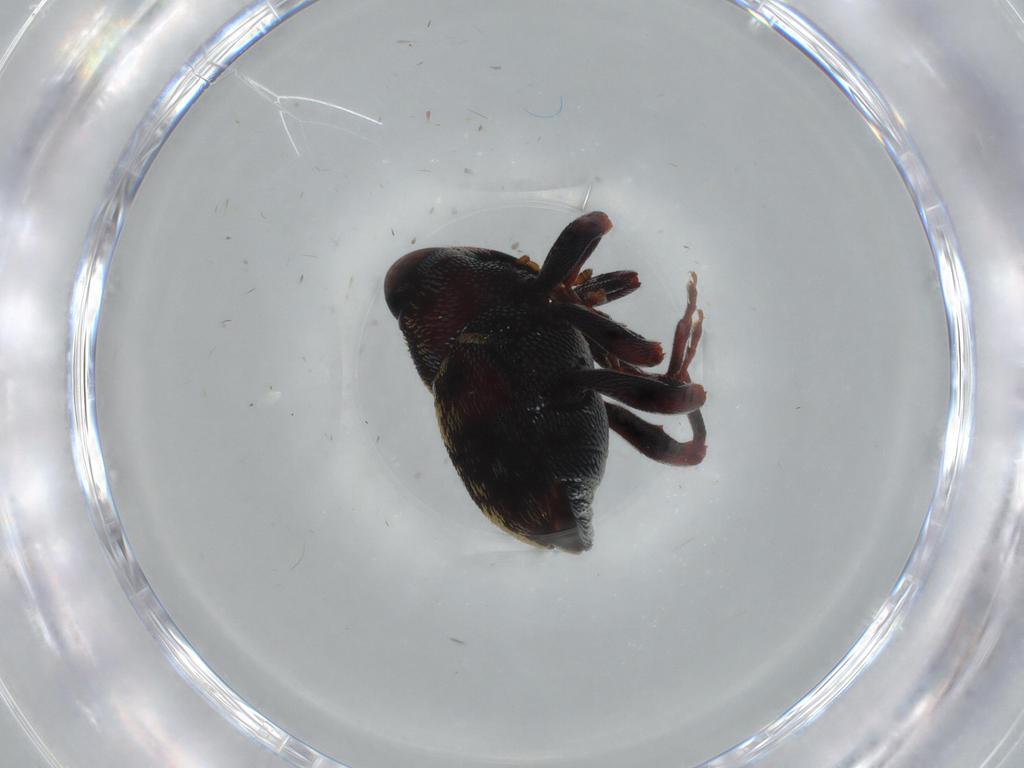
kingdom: Animalia
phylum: Arthropoda
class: Insecta
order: Coleoptera
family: Curculionidae
